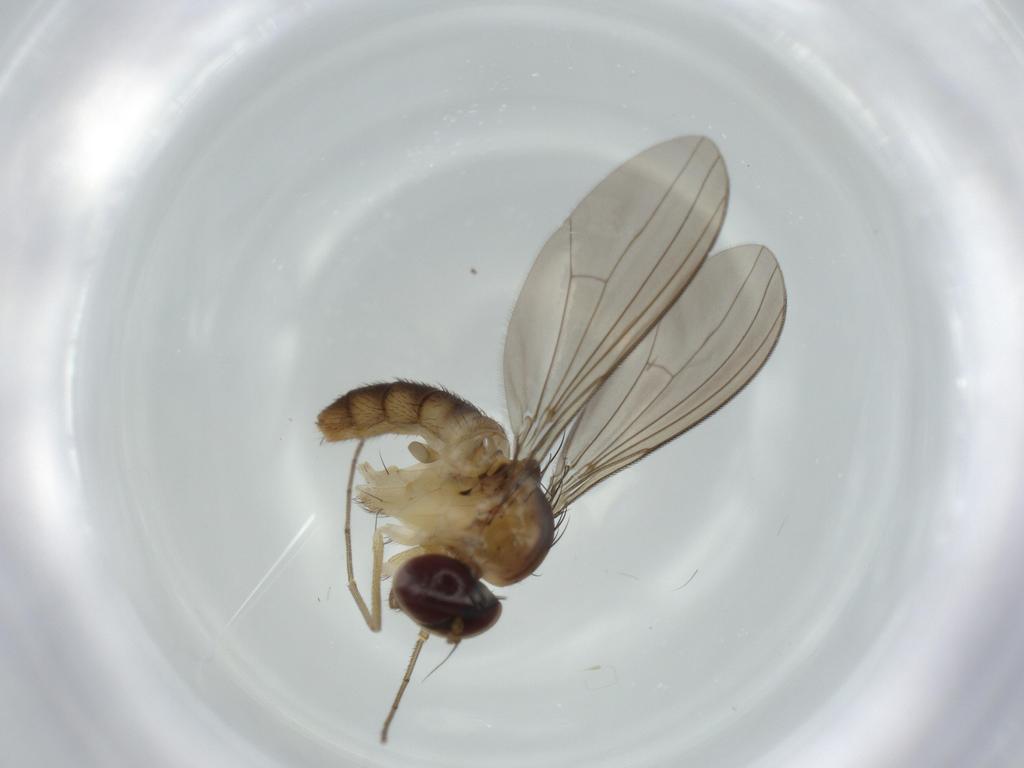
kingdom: Animalia
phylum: Arthropoda
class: Insecta
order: Diptera
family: Dolichopodidae
